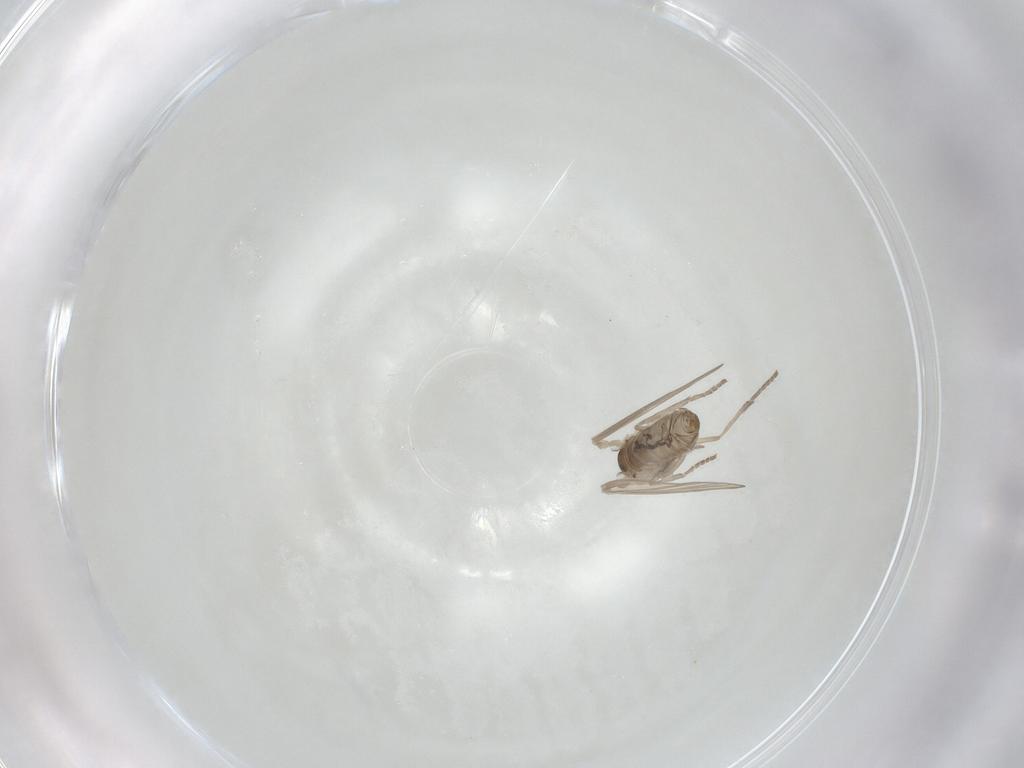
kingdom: Animalia
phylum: Arthropoda
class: Insecta
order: Diptera
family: Psychodidae
